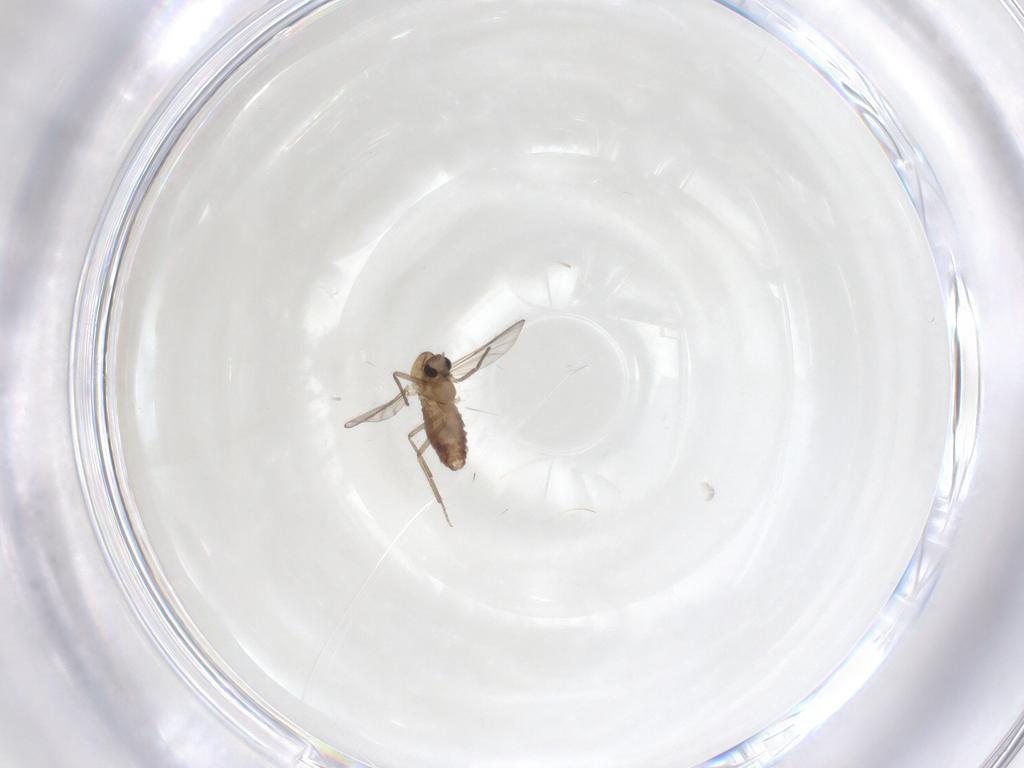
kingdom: Animalia
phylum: Arthropoda
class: Insecta
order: Diptera
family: Chironomidae
